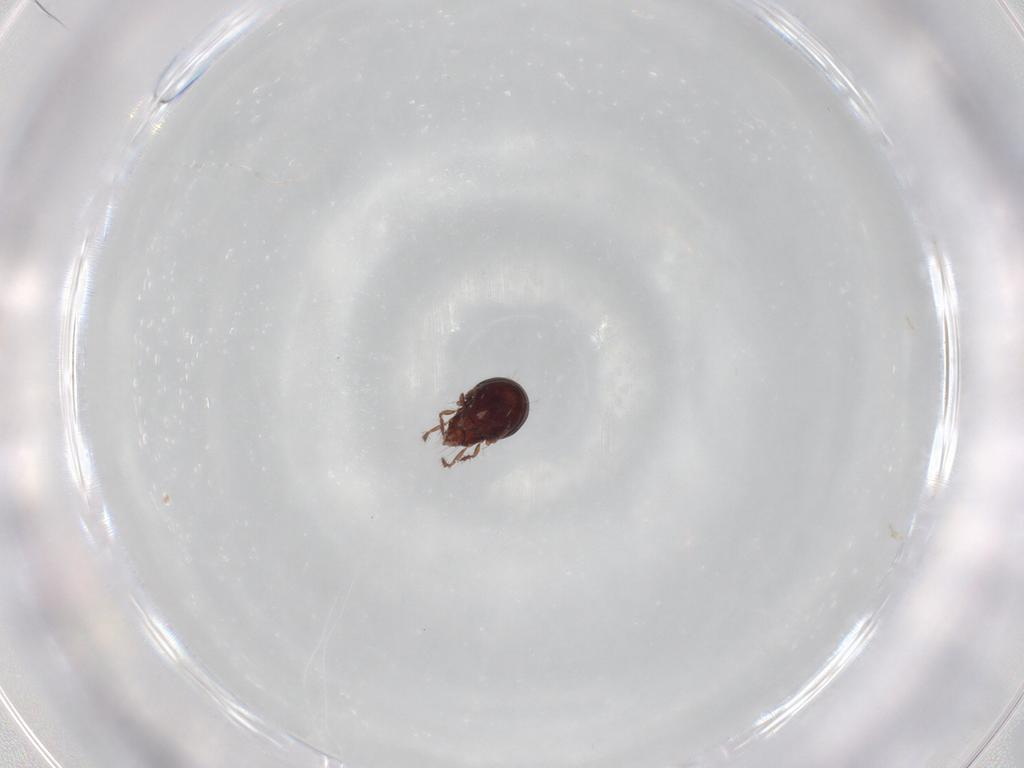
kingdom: Animalia
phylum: Arthropoda
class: Arachnida
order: Sarcoptiformes
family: Ceratoppiidae
